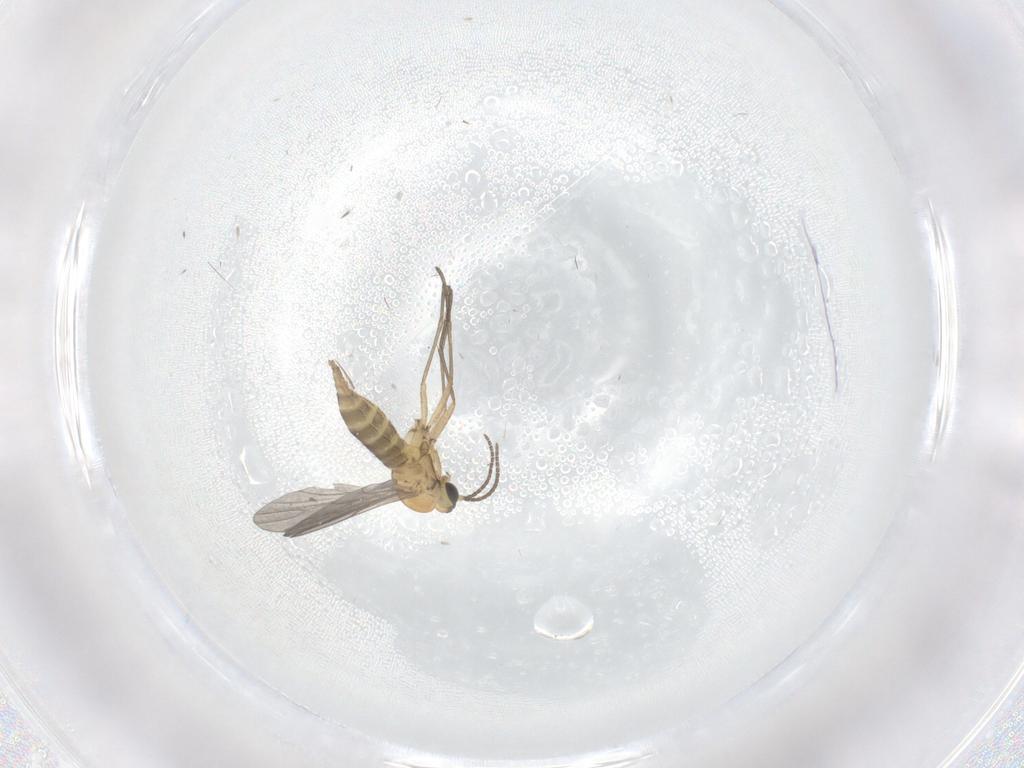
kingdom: Animalia
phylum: Arthropoda
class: Insecta
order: Diptera
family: Sciaridae
